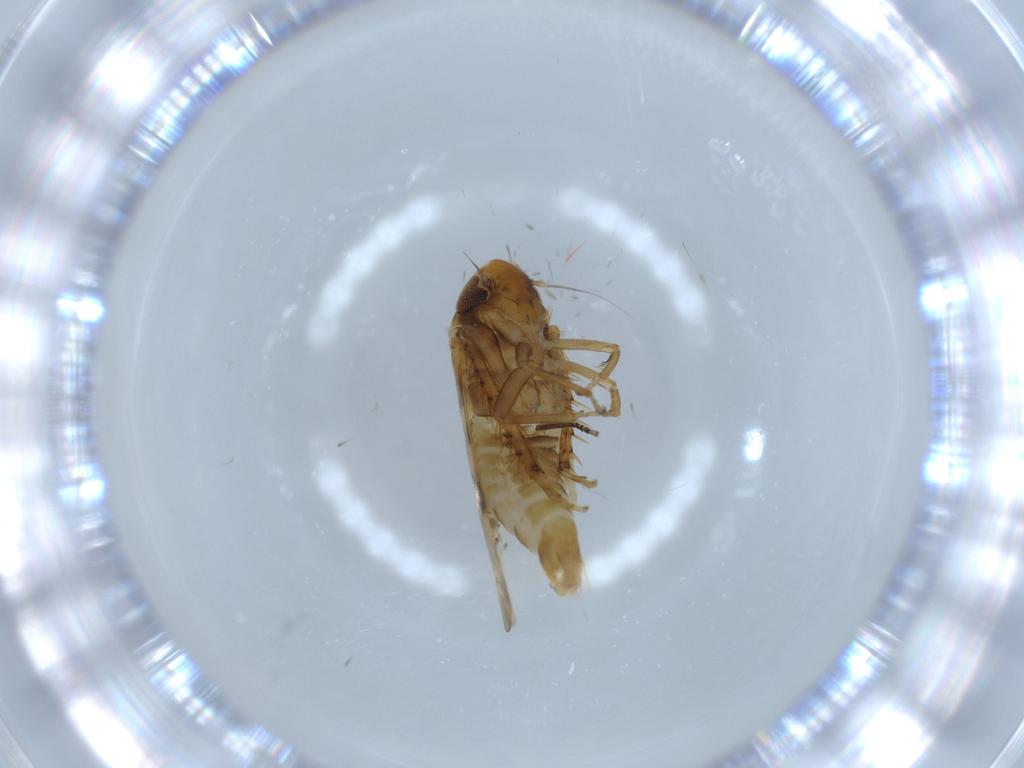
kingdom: Animalia
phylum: Arthropoda
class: Insecta
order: Hemiptera
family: Cicadellidae
